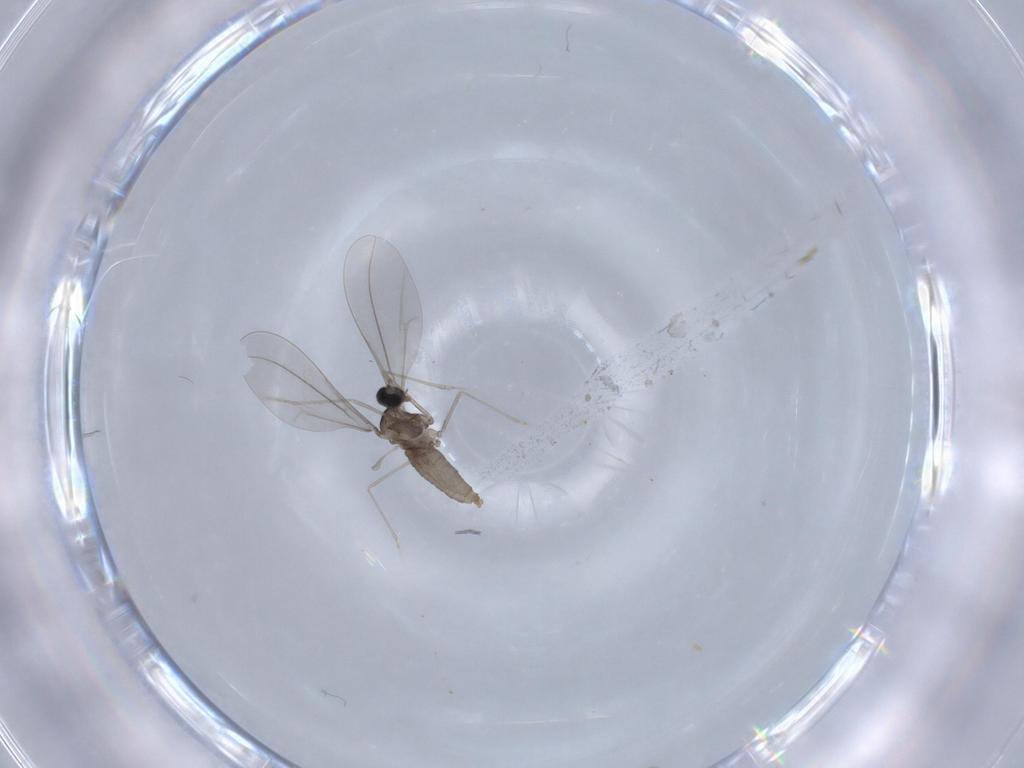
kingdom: Animalia
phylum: Arthropoda
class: Insecta
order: Diptera
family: Cecidomyiidae
